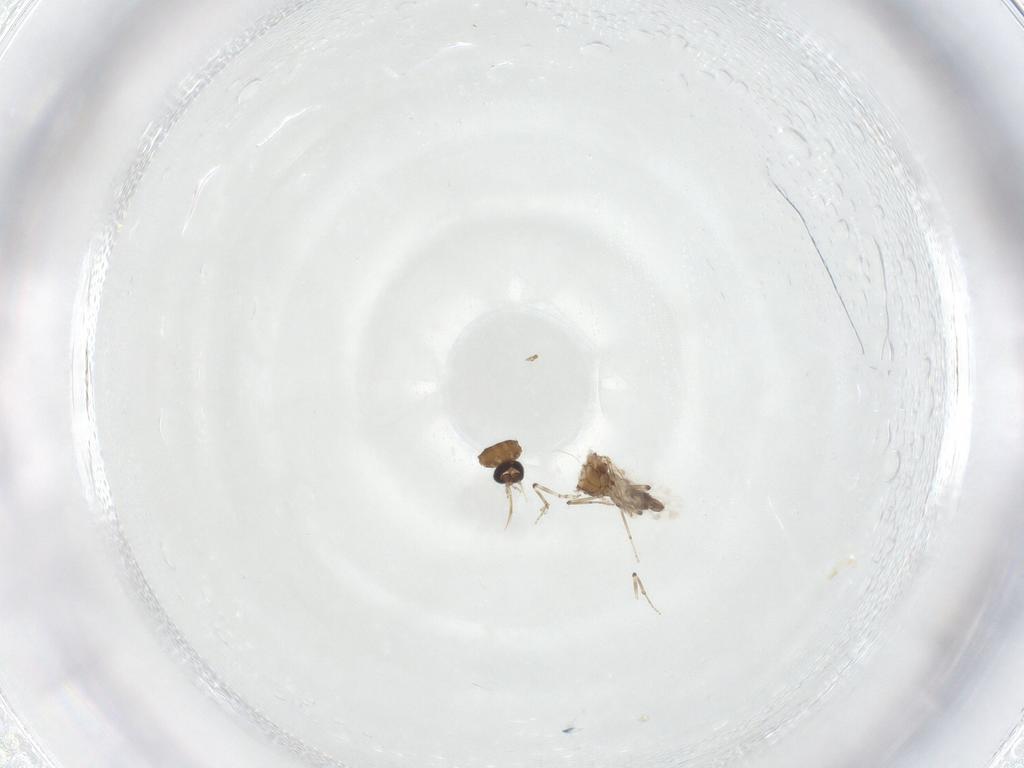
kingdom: Animalia
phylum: Arthropoda
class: Insecta
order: Diptera
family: Ceratopogonidae
